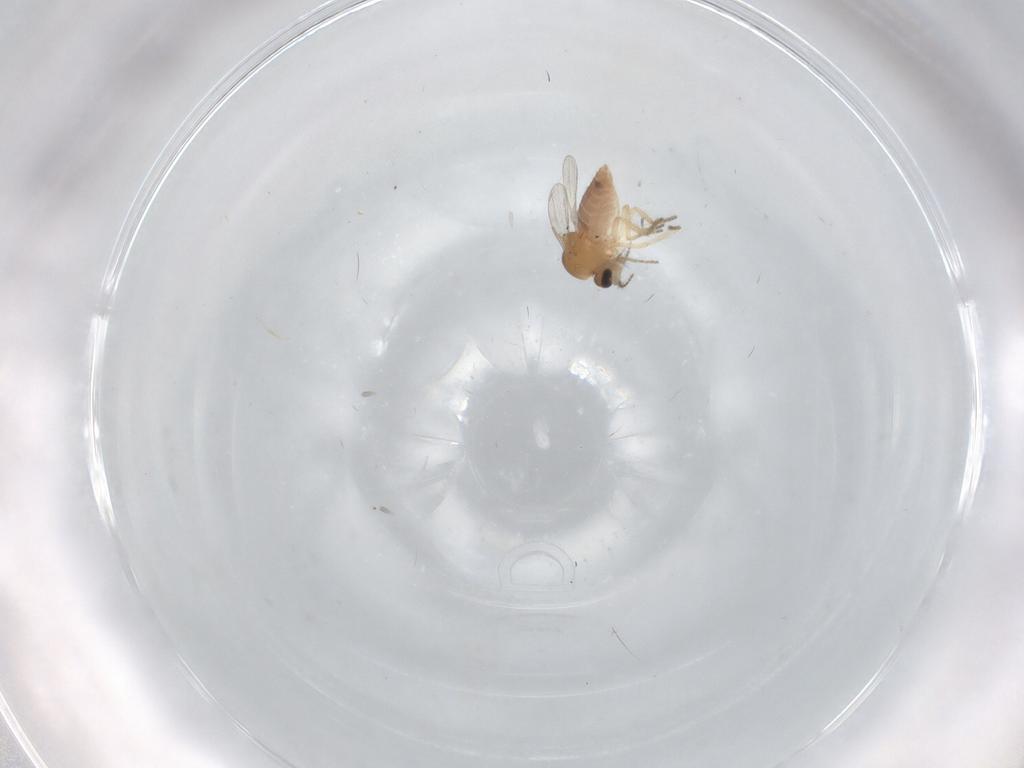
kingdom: Animalia
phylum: Arthropoda
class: Insecta
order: Diptera
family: Ceratopogonidae
